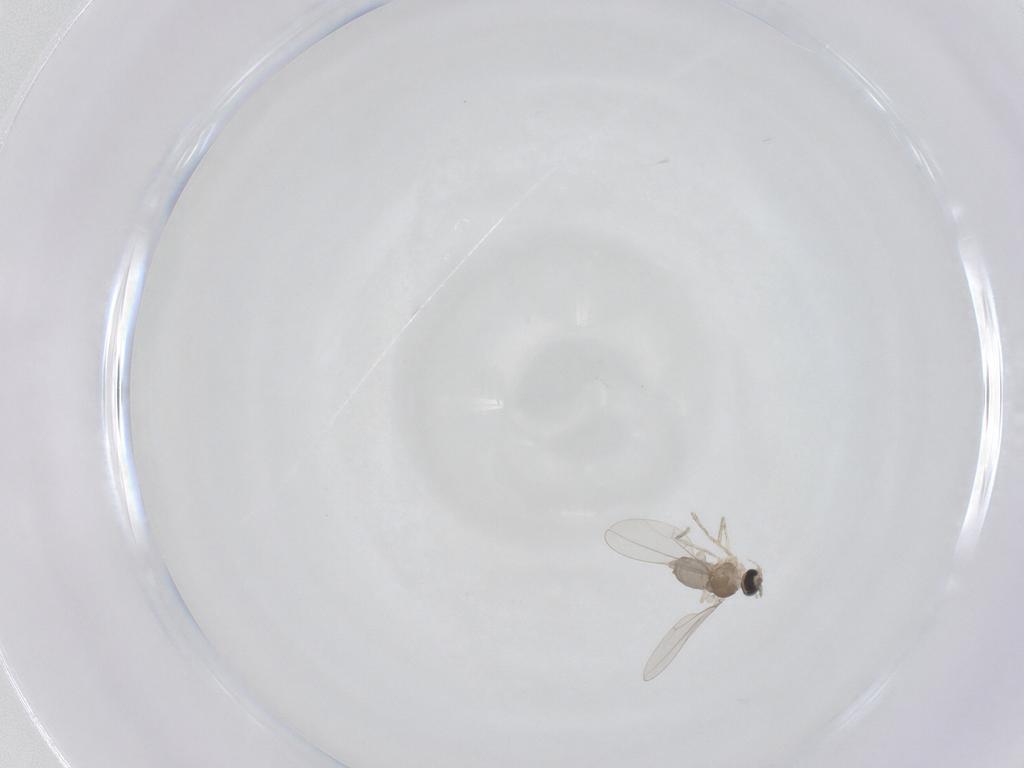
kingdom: Animalia
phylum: Arthropoda
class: Insecta
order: Diptera
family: Cecidomyiidae
